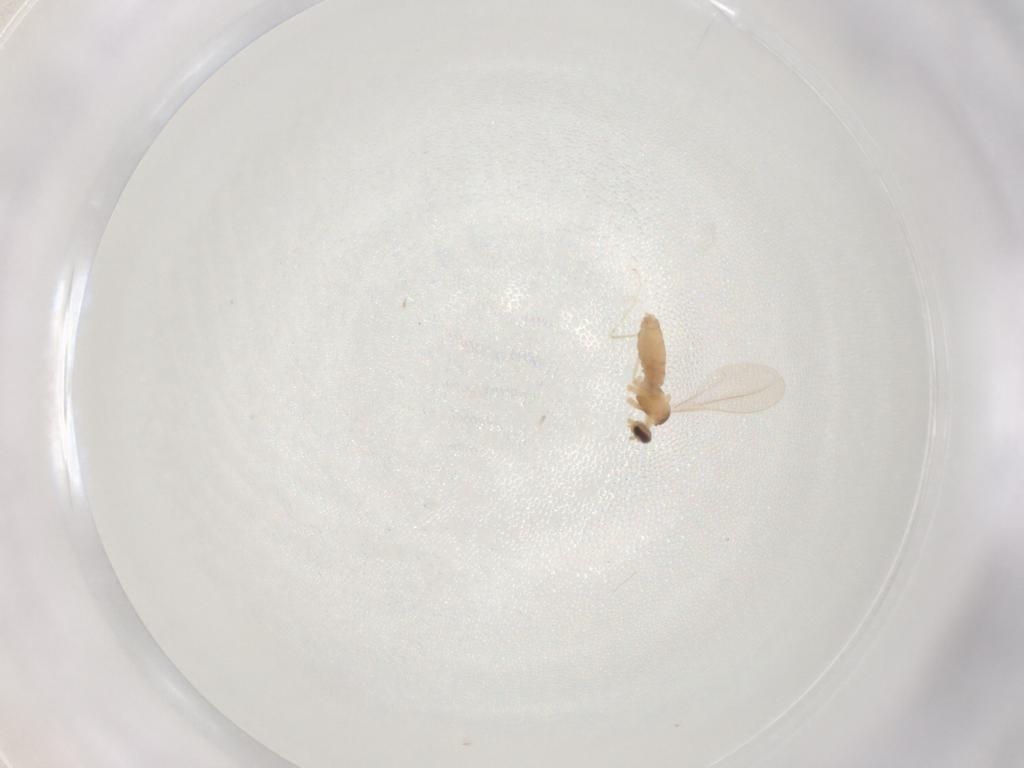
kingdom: Animalia
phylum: Arthropoda
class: Insecta
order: Diptera
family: Cecidomyiidae
